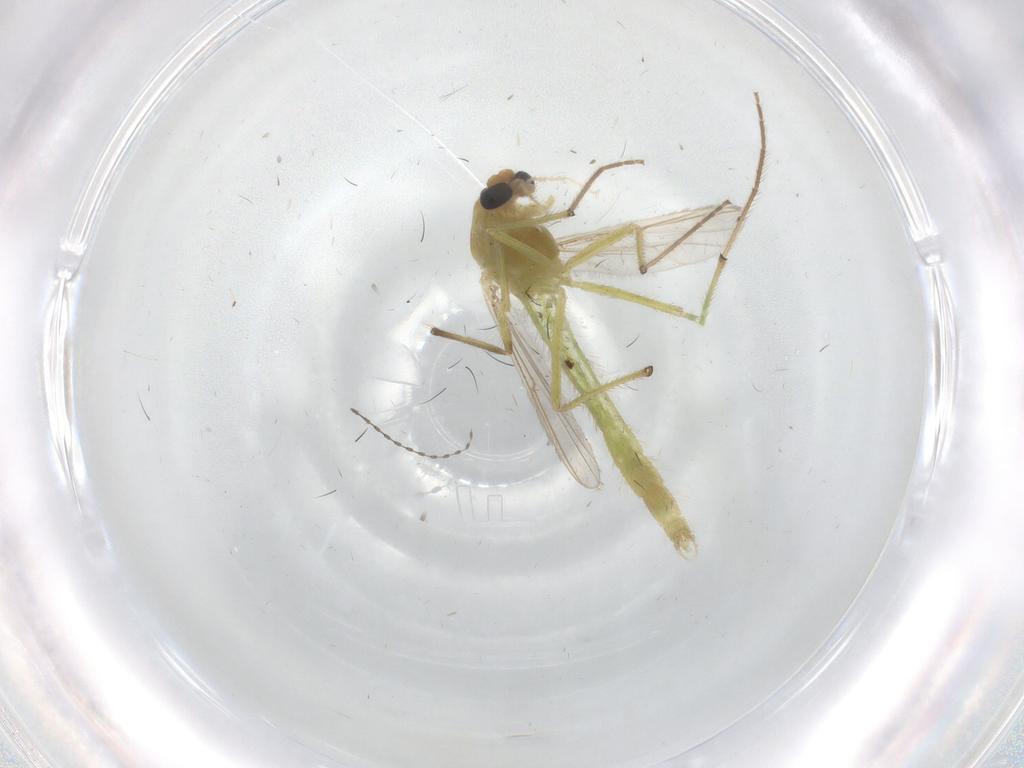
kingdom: Animalia
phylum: Arthropoda
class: Insecta
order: Diptera
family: Chironomidae
